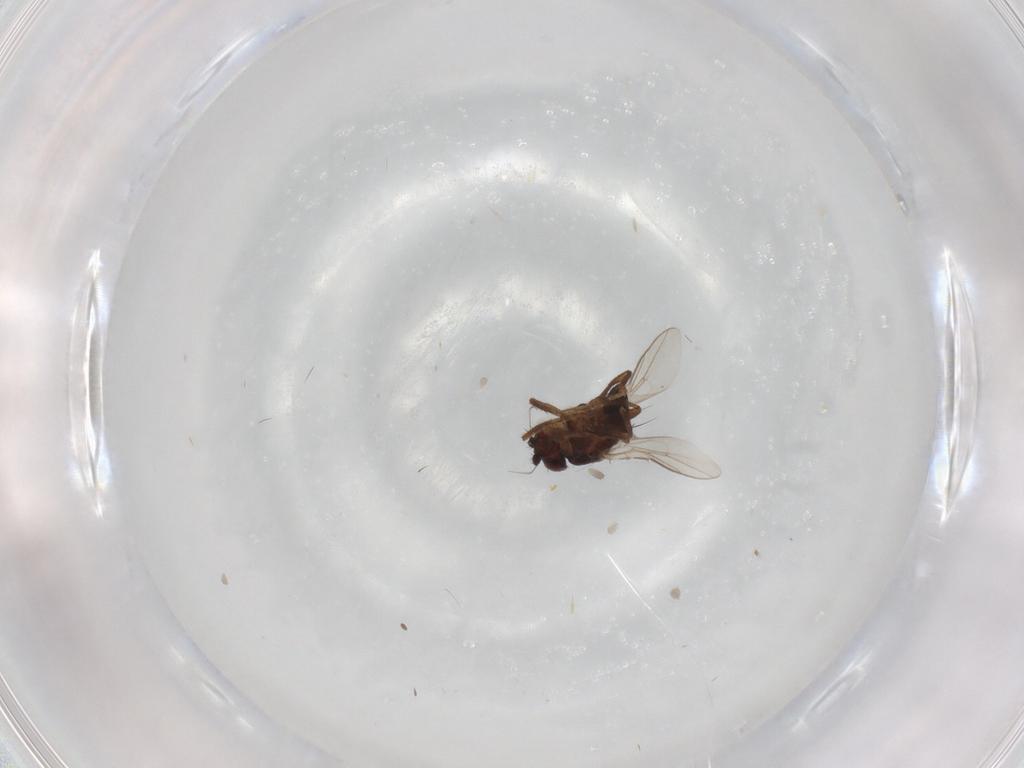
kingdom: Animalia
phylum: Arthropoda
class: Insecta
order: Diptera
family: Sphaeroceridae
